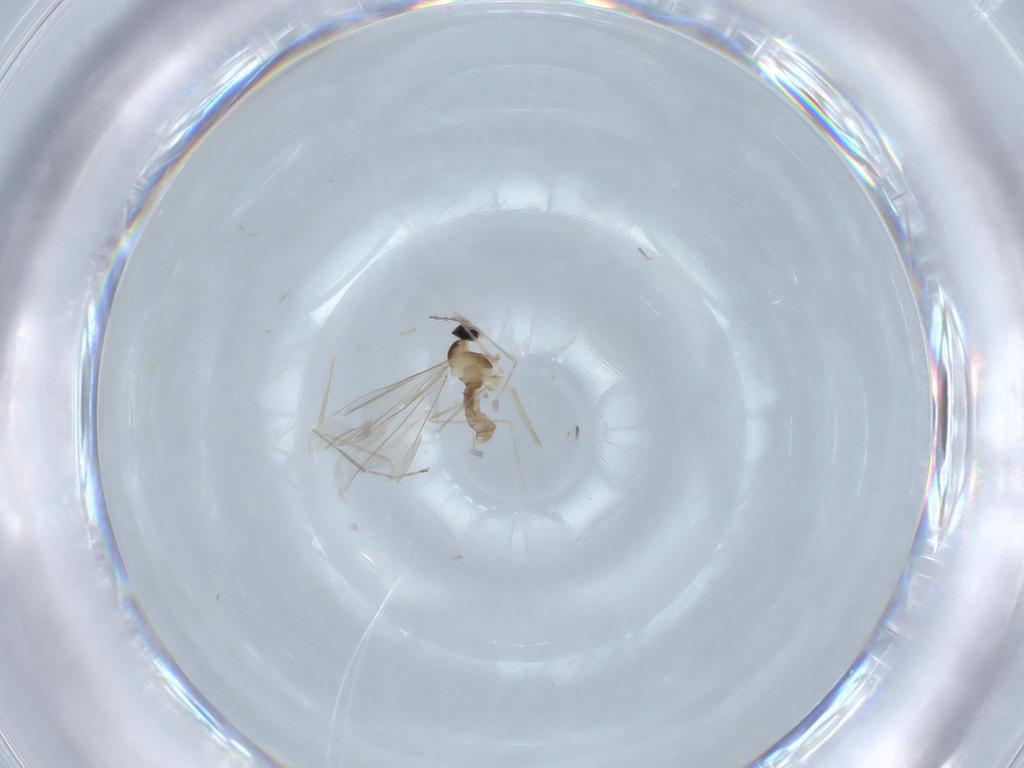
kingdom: Animalia
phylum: Arthropoda
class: Insecta
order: Diptera
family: Cecidomyiidae
